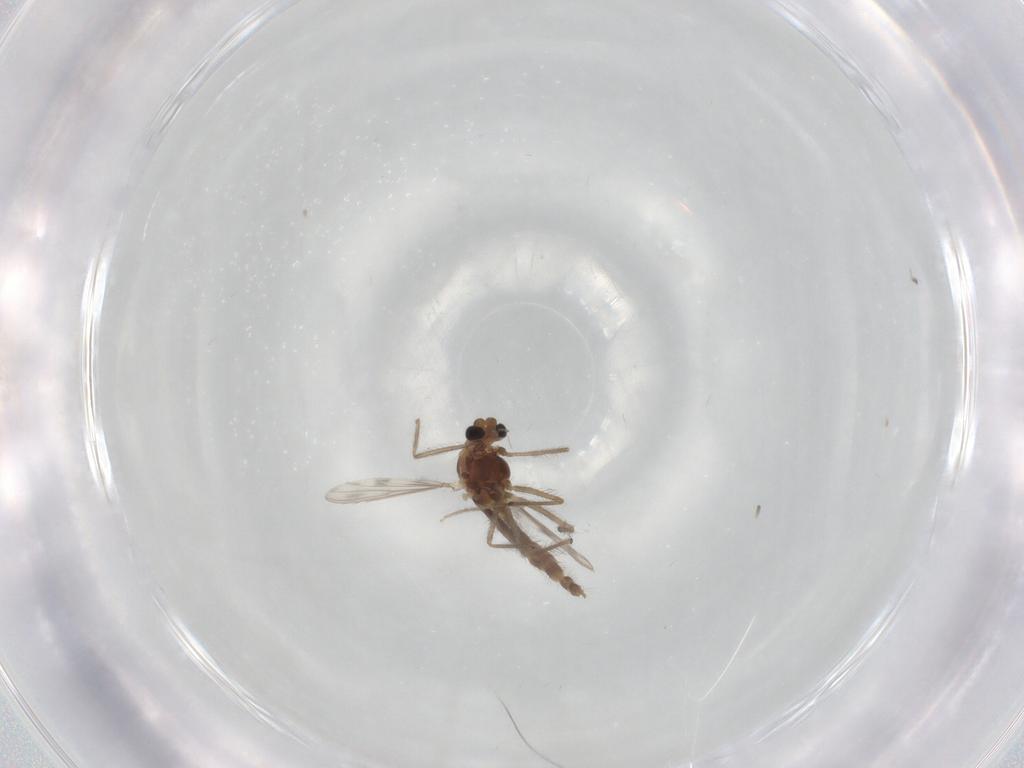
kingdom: Animalia
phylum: Arthropoda
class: Insecta
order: Diptera
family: Chironomidae
